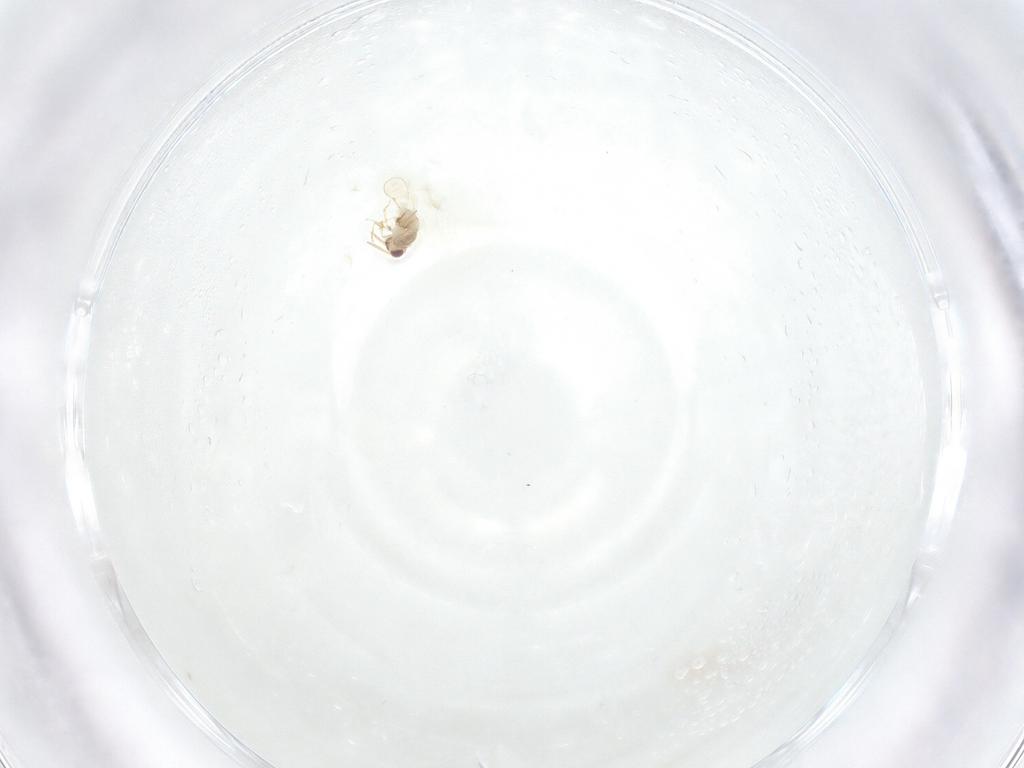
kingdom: Animalia
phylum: Arthropoda
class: Insecta
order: Hymenoptera
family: Aphelinidae
